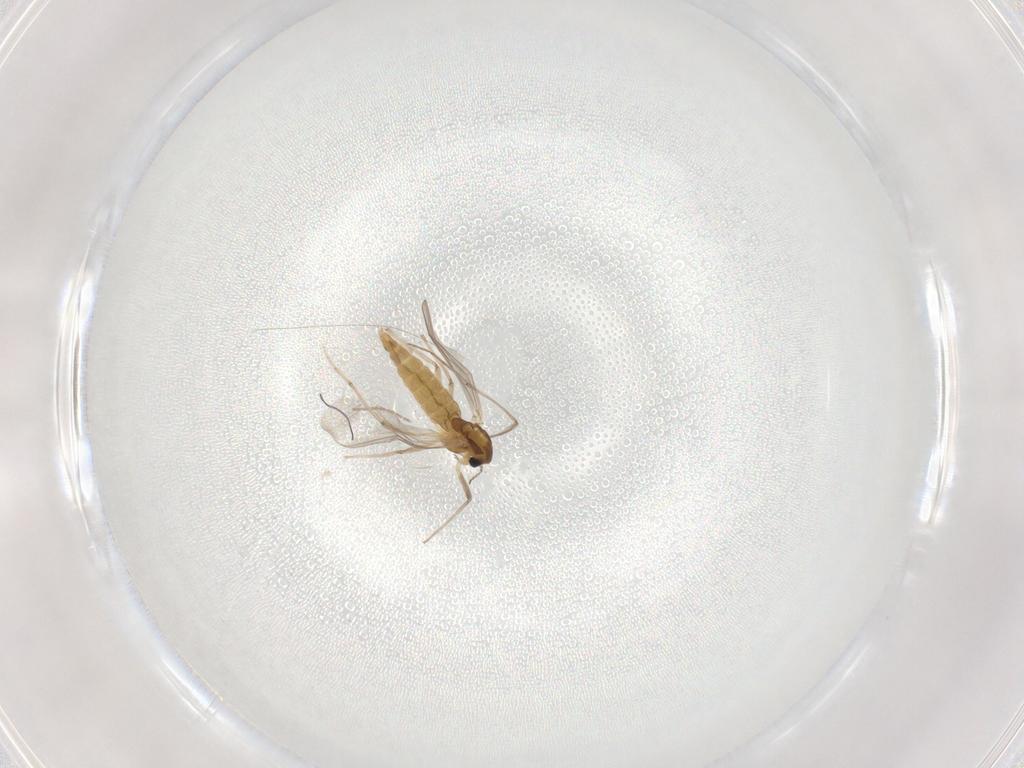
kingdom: Animalia
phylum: Arthropoda
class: Insecta
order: Diptera
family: Chironomidae
